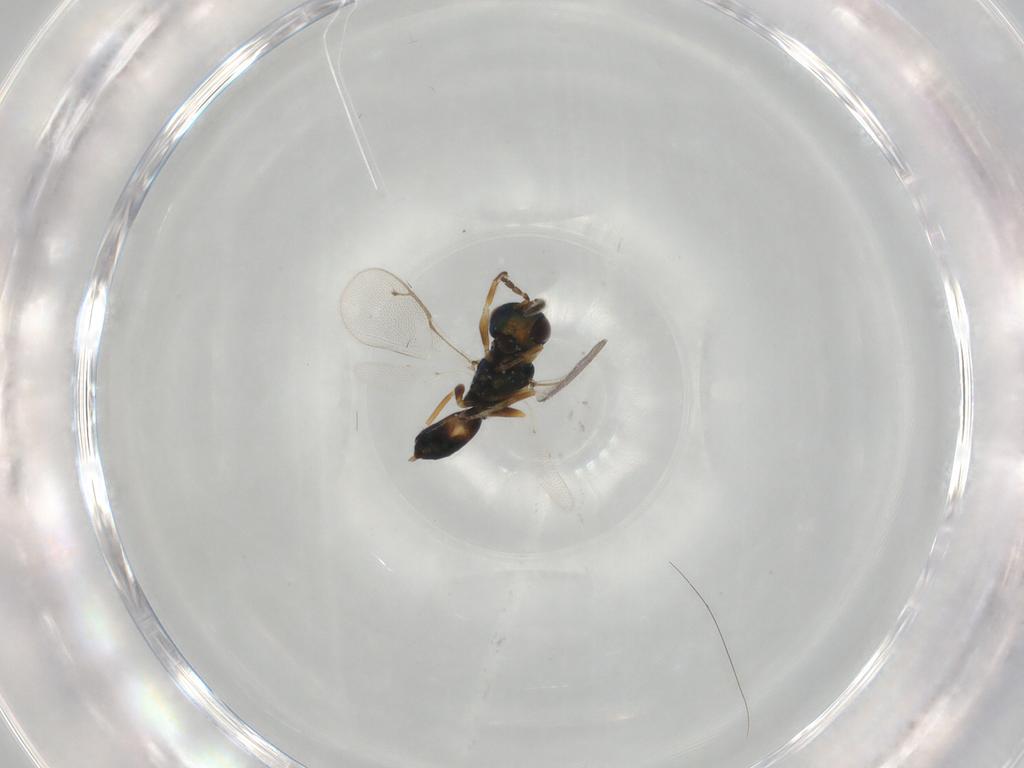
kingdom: Animalia
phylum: Arthropoda
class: Insecta
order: Hymenoptera
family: Pteromalidae
